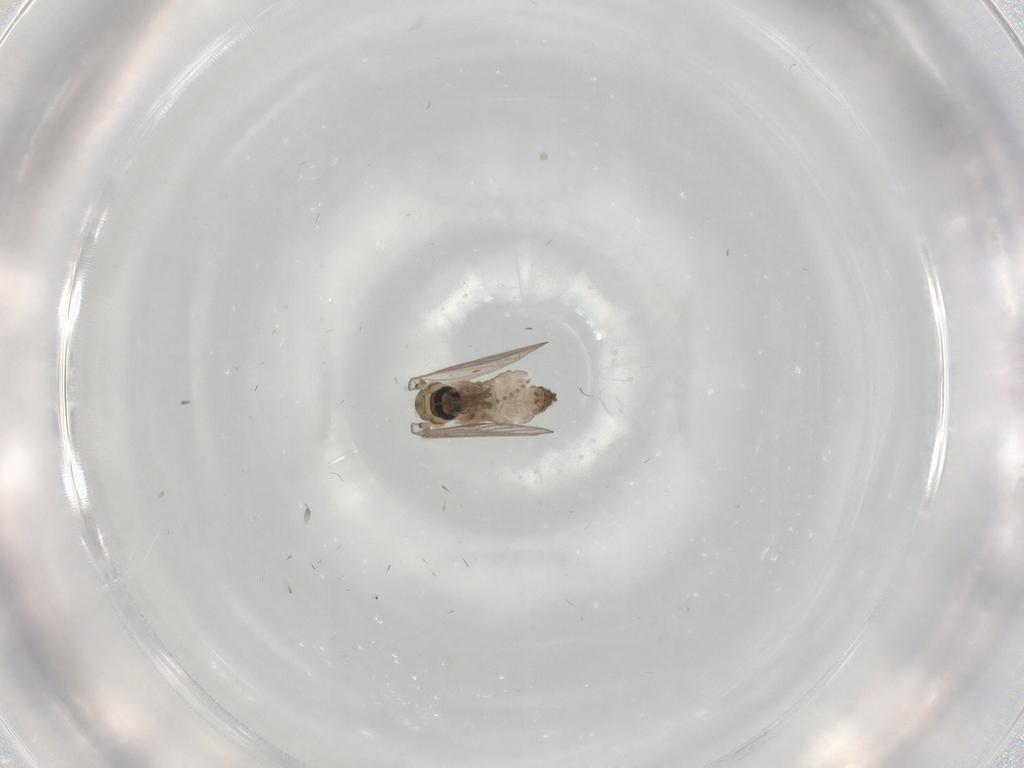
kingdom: Animalia
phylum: Arthropoda
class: Insecta
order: Diptera
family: Psychodidae
